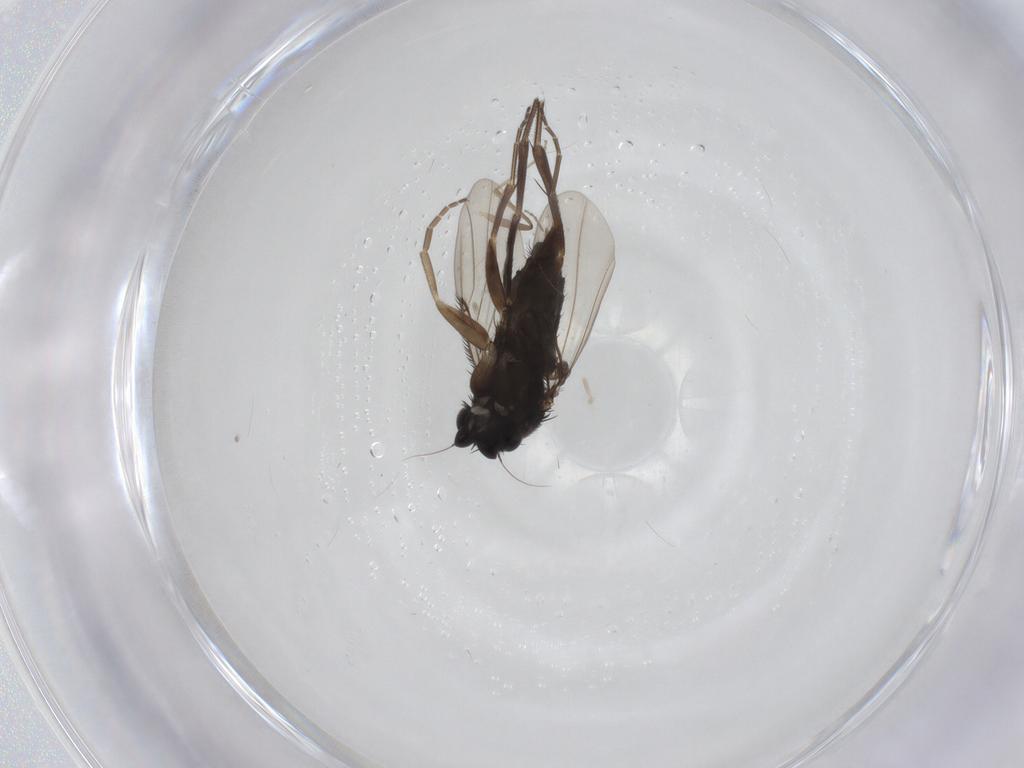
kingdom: Animalia
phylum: Arthropoda
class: Insecta
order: Diptera
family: Phoridae
